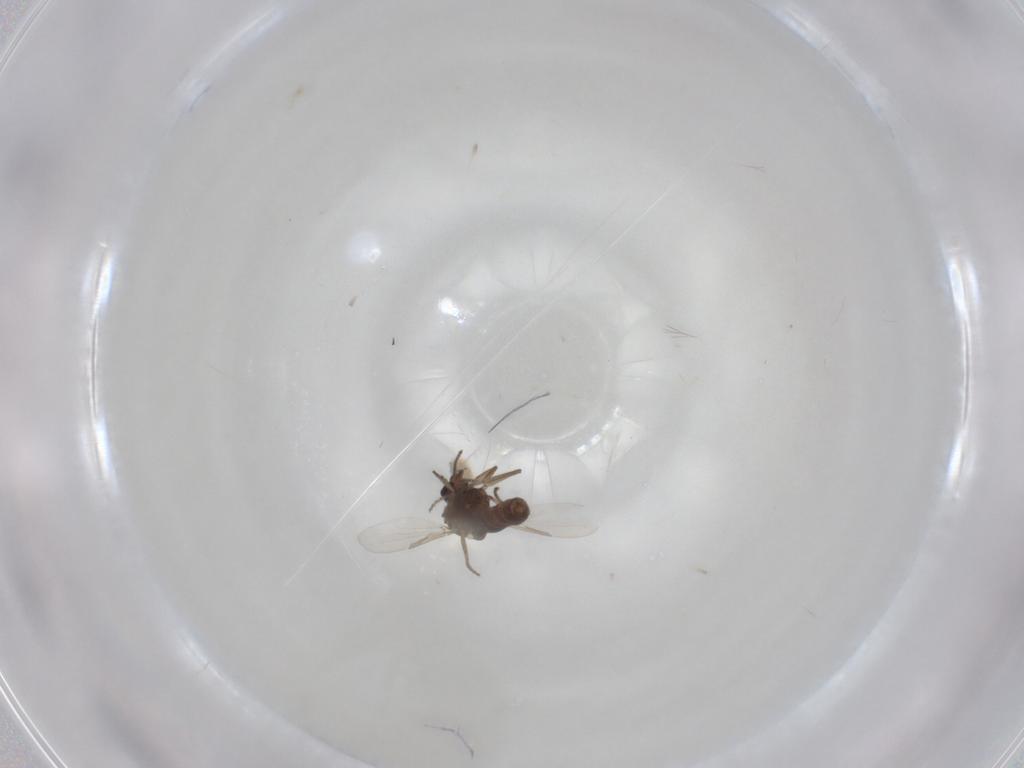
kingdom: Animalia
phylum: Arthropoda
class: Insecta
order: Diptera
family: Ceratopogonidae
